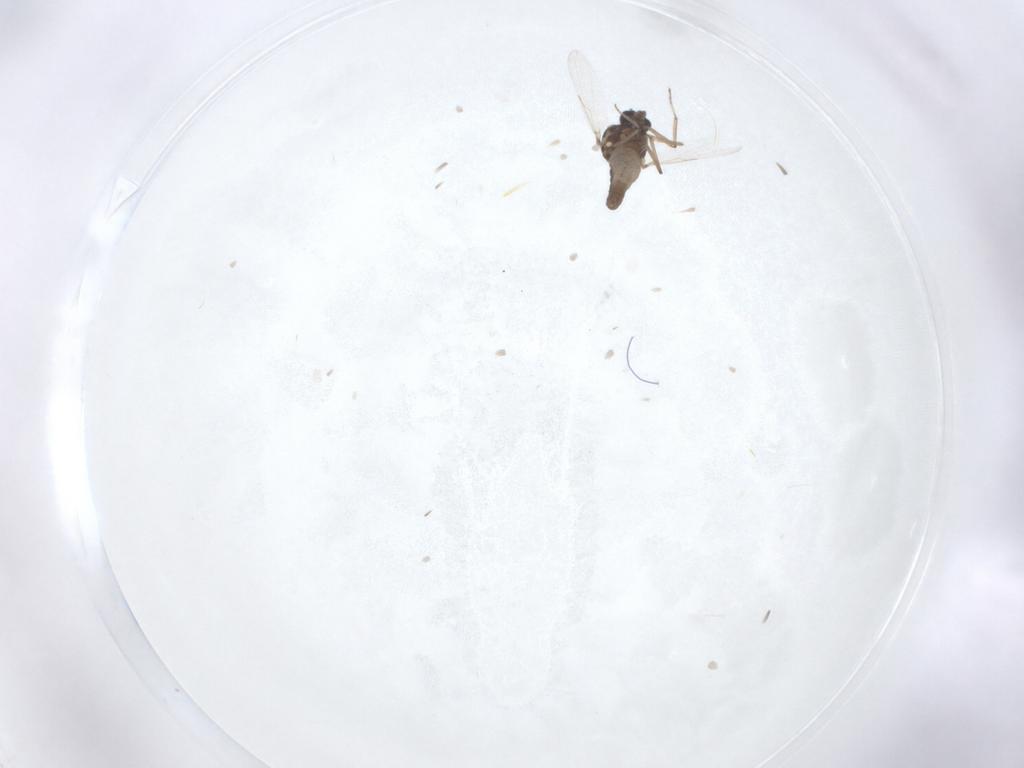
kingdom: Animalia
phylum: Arthropoda
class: Insecta
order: Diptera
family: Ceratopogonidae
